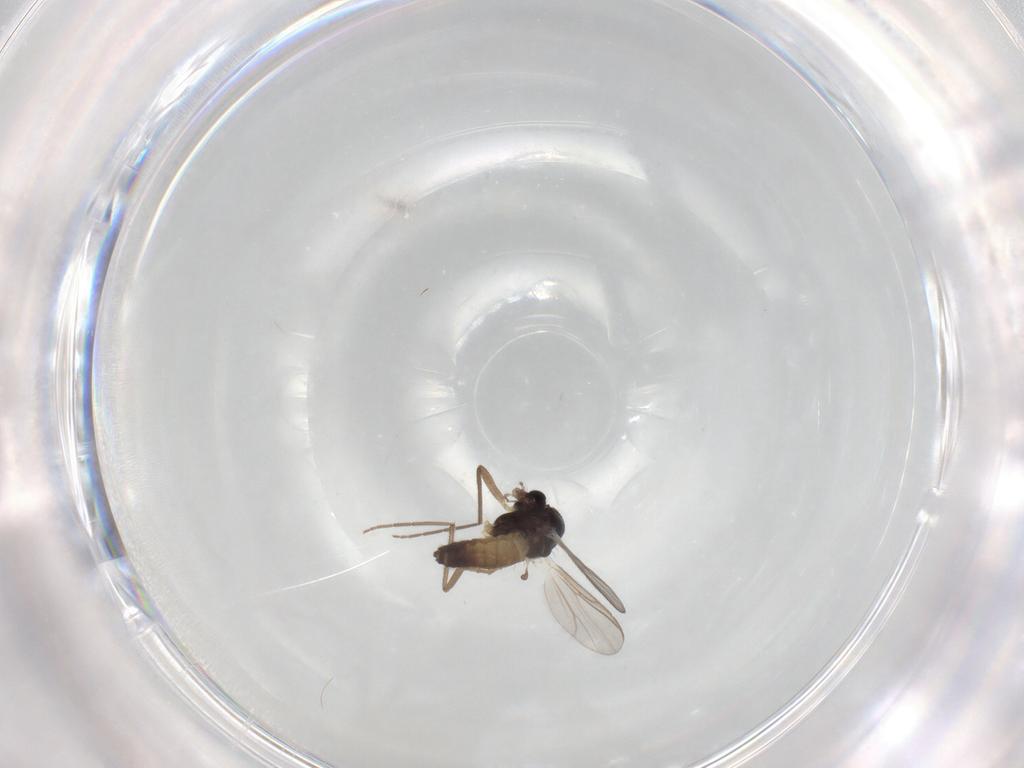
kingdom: Animalia
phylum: Arthropoda
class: Insecta
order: Diptera
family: Chironomidae
